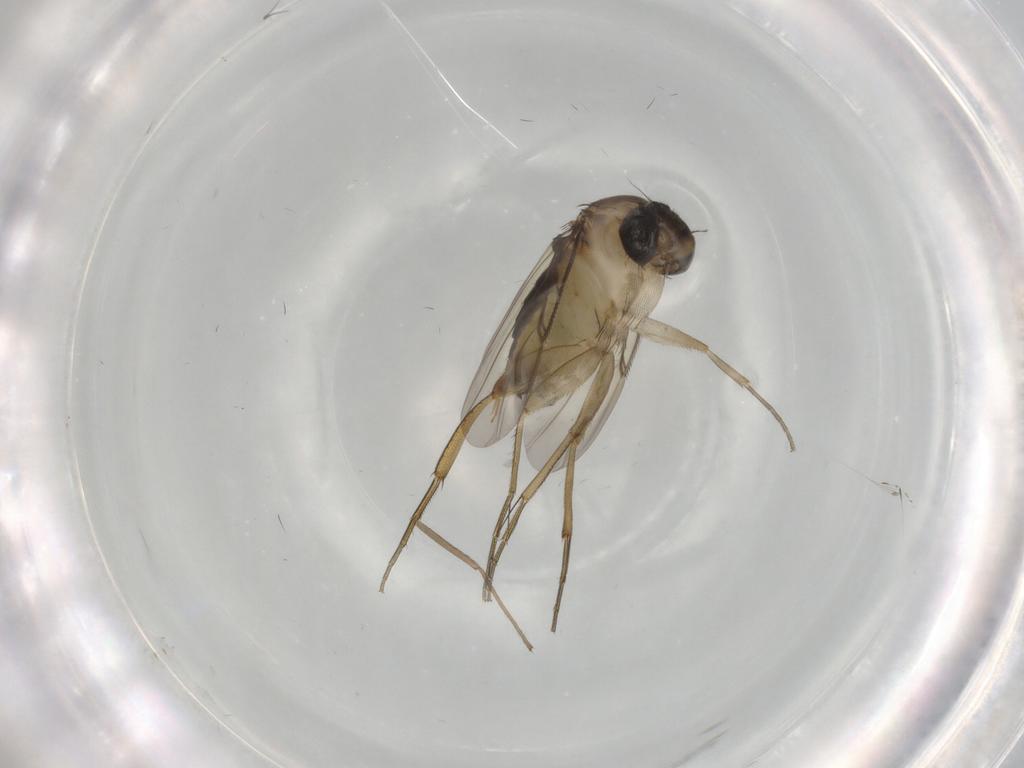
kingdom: Animalia
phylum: Arthropoda
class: Insecta
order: Diptera
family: Phoridae
